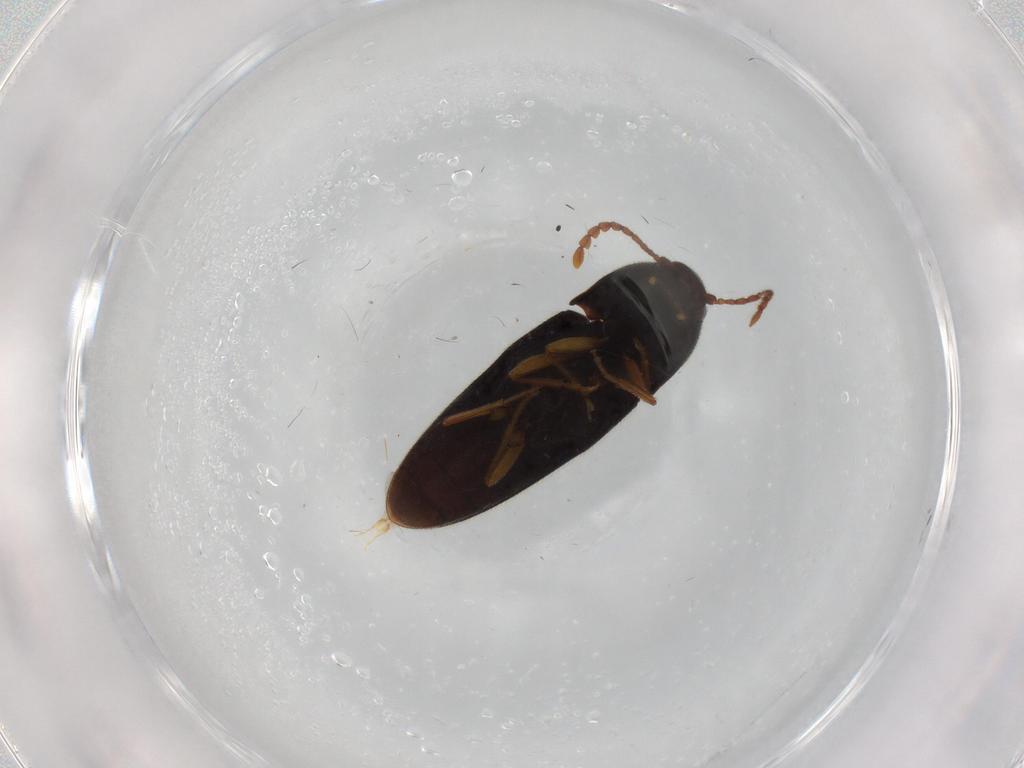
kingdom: Animalia
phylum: Arthropoda
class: Insecta
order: Coleoptera
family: Elateridae
